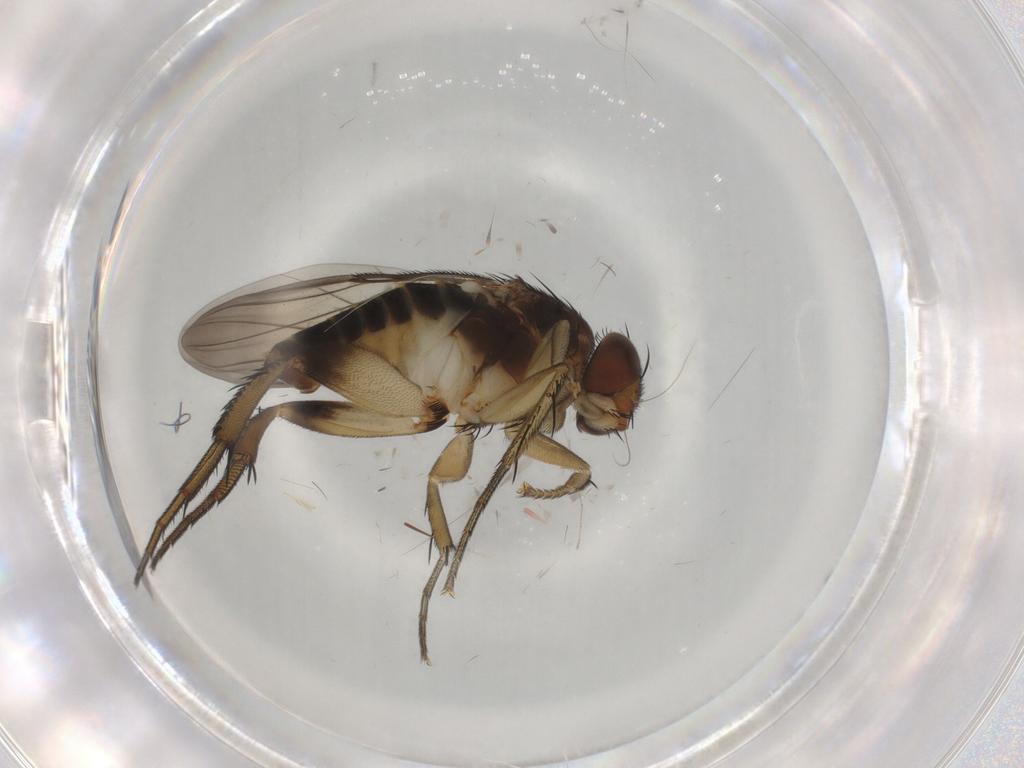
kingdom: Animalia
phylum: Arthropoda
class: Insecta
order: Diptera
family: Phoridae
